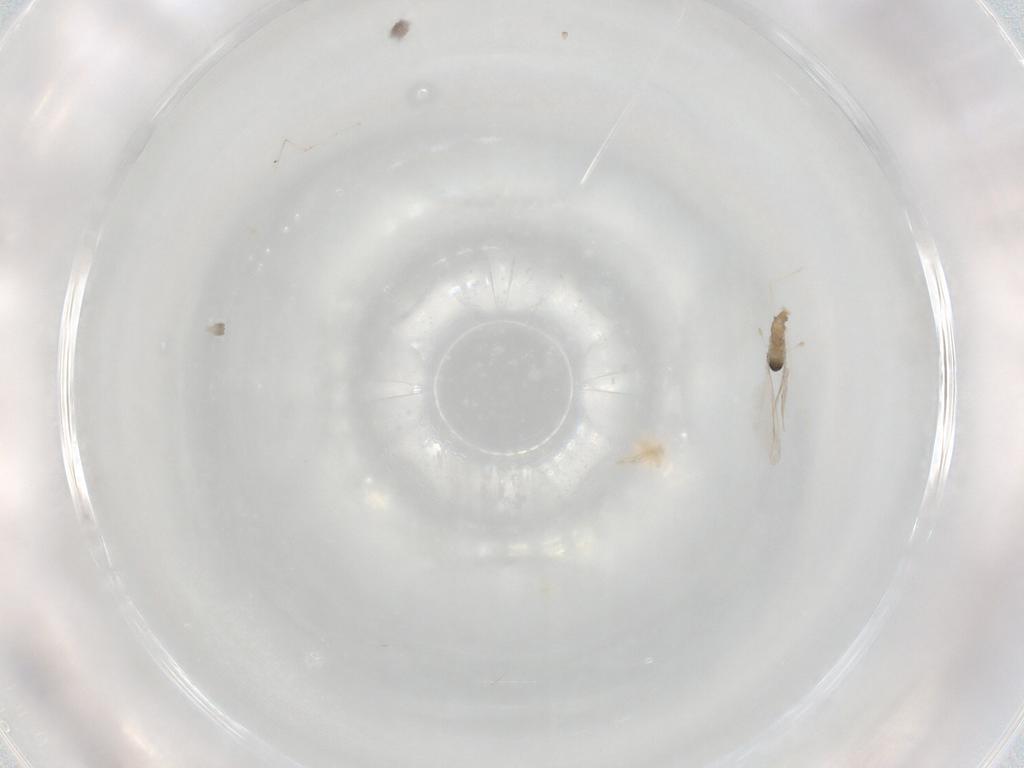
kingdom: Animalia
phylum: Arthropoda
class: Insecta
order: Diptera
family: Cecidomyiidae
